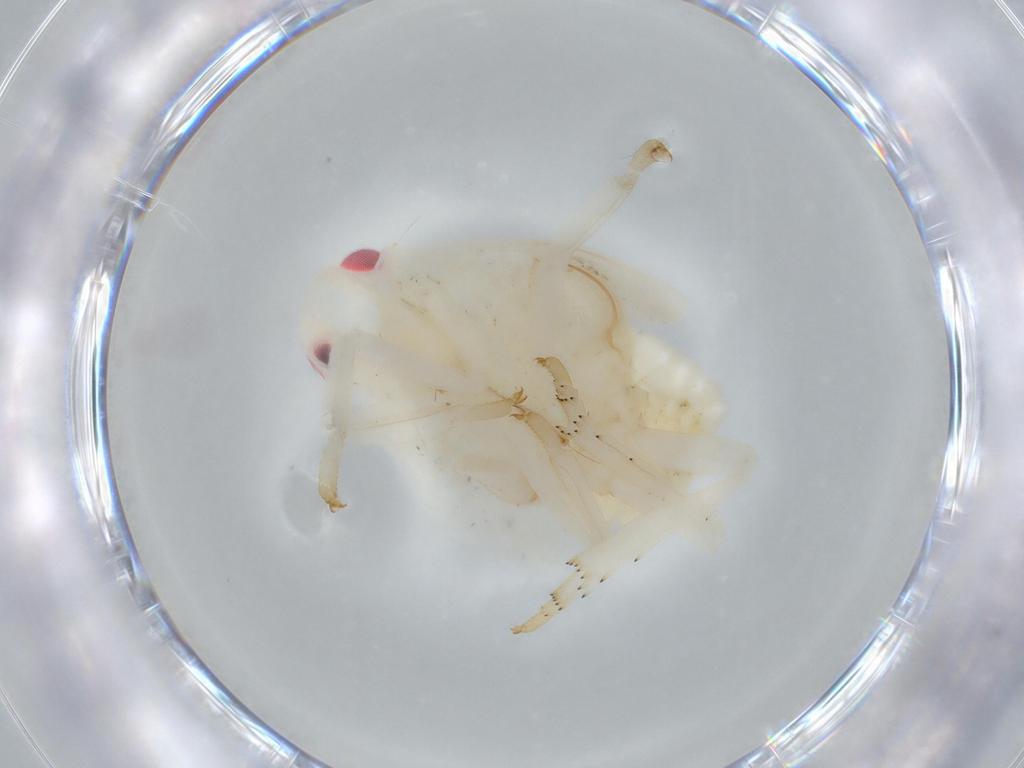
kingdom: Animalia
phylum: Arthropoda
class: Insecta
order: Hemiptera
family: Flatidae
